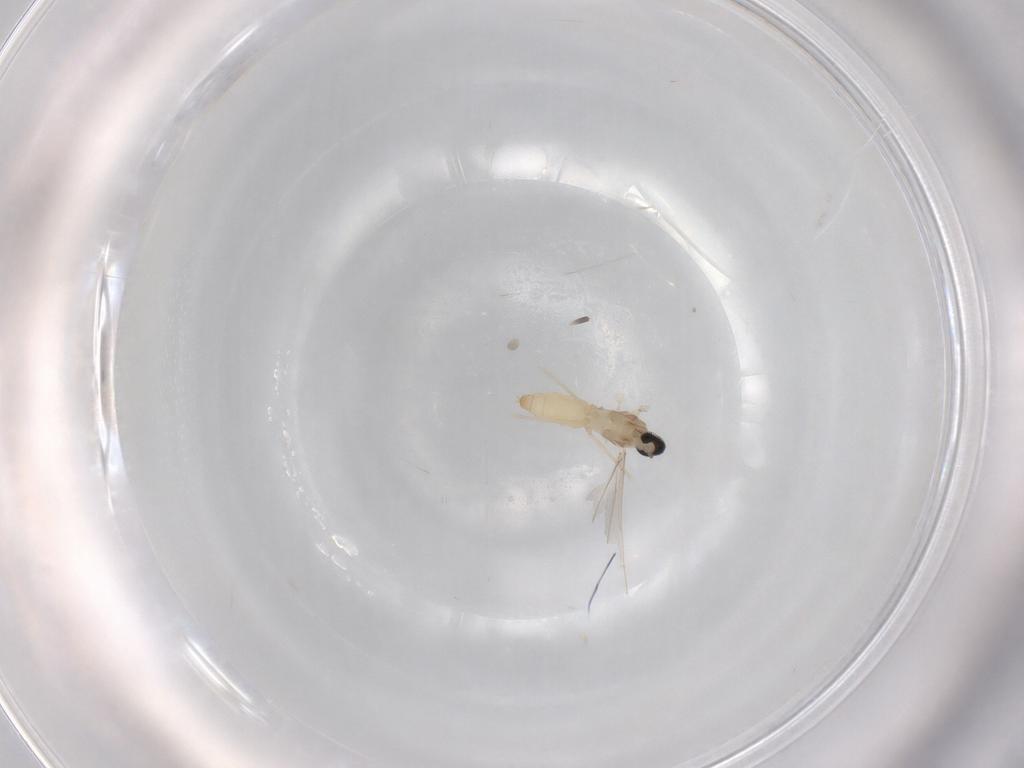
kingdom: Animalia
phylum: Arthropoda
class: Insecta
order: Diptera
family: Cecidomyiidae
